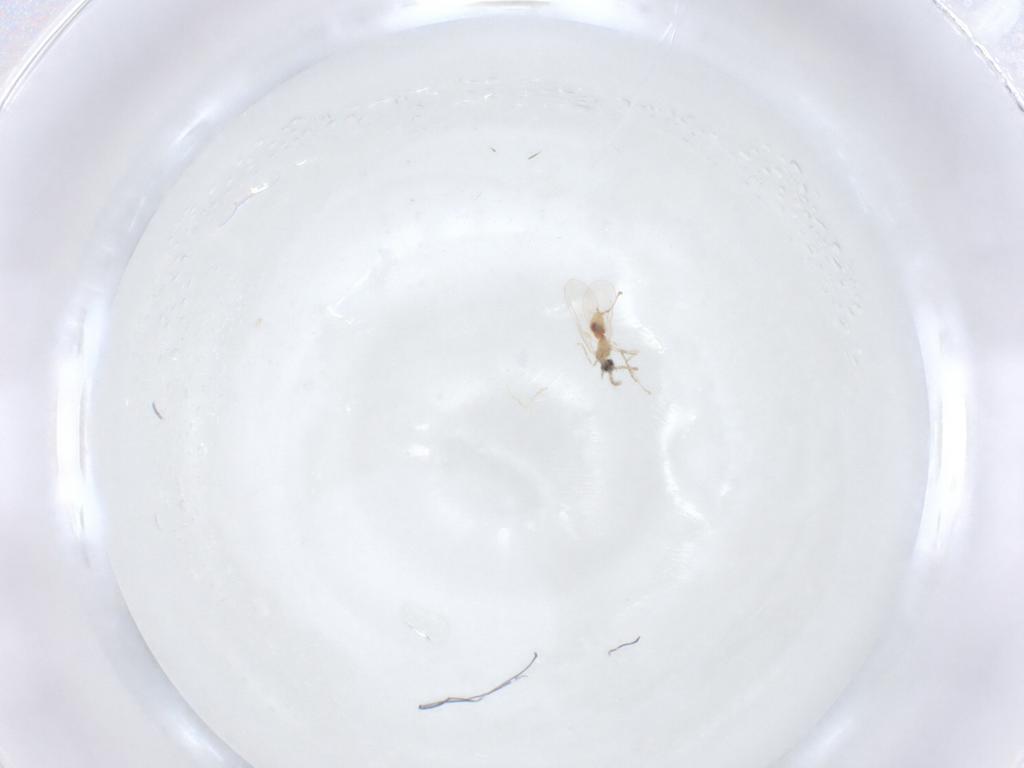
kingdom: Animalia
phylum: Arthropoda
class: Insecta
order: Diptera
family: Cecidomyiidae
